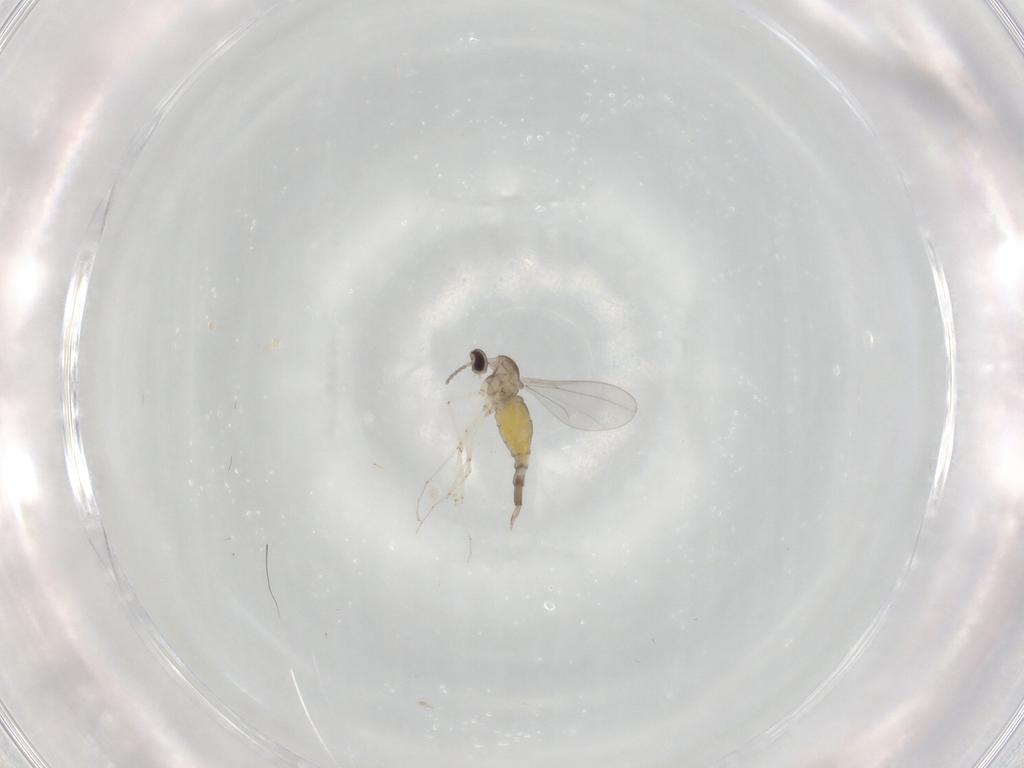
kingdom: Animalia
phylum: Arthropoda
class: Insecta
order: Diptera
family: Chironomidae
